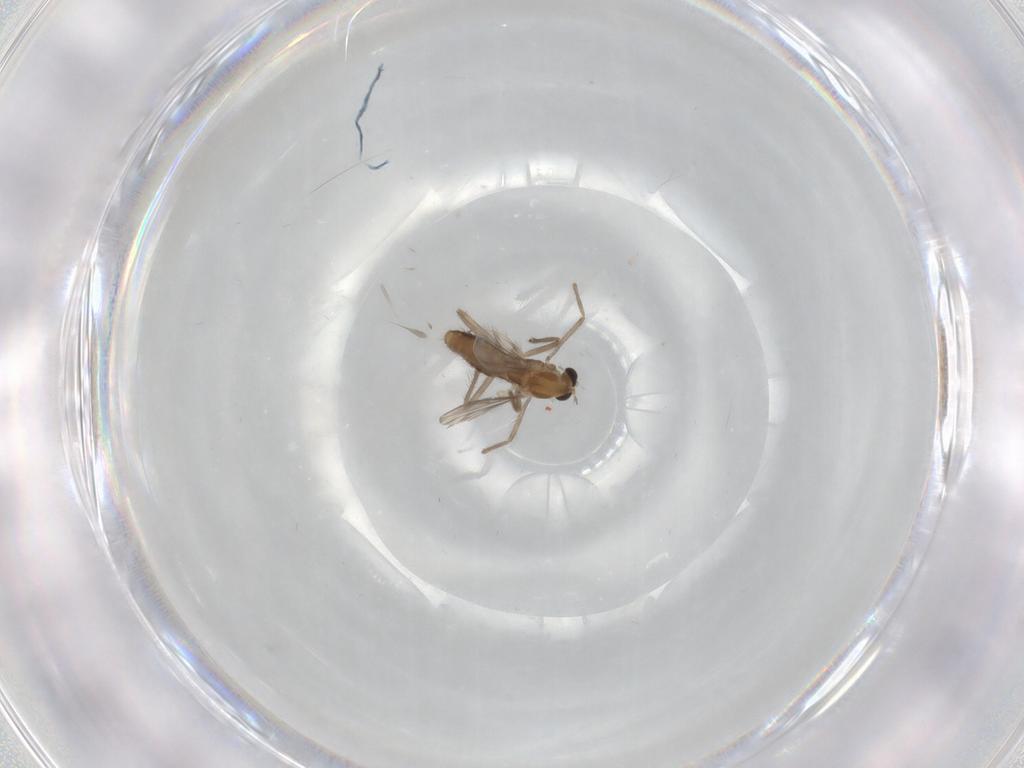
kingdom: Animalia
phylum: Arthropoda
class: Insecta
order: Diptera
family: Chironomidae
